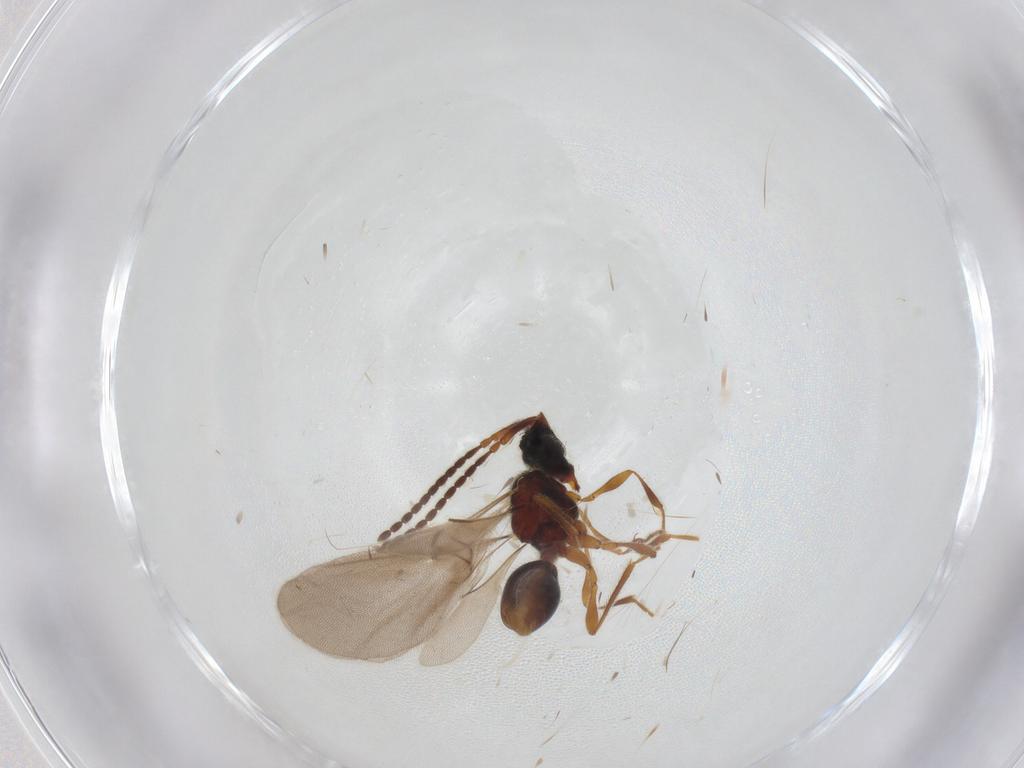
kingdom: Animalia
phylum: Arthropoda
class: Insecta
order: Hymenoptera
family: Diapriidae
